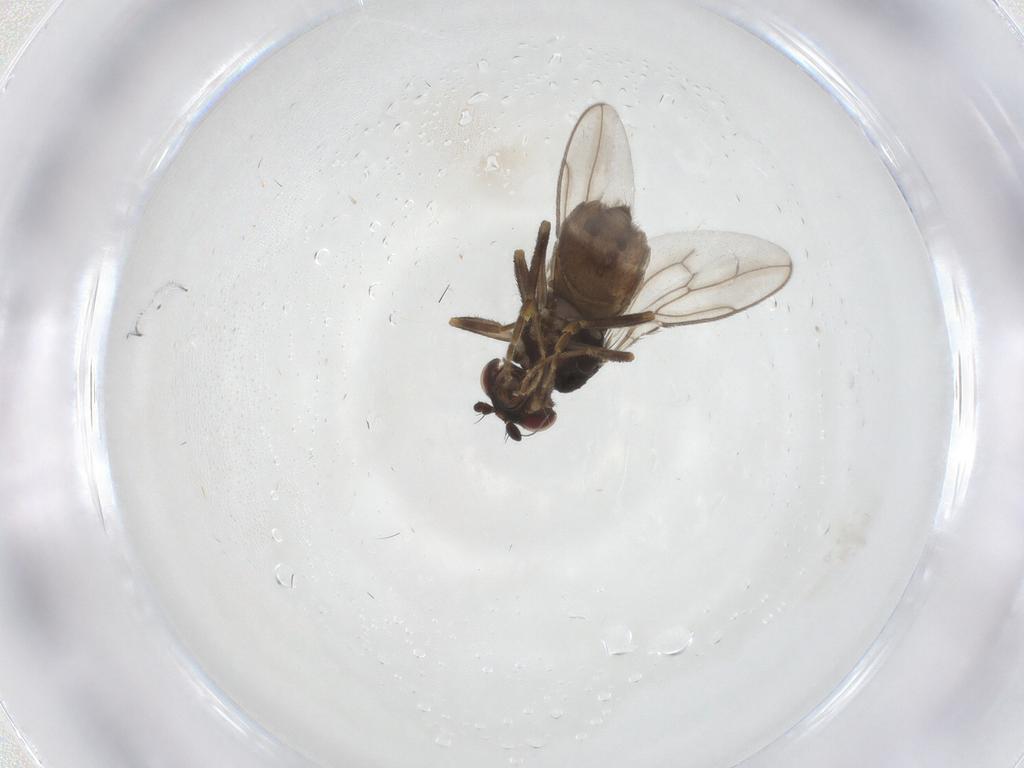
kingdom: Animalia
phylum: Arthropoda
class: Insecta
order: Diptera
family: Sphaeroceridae
